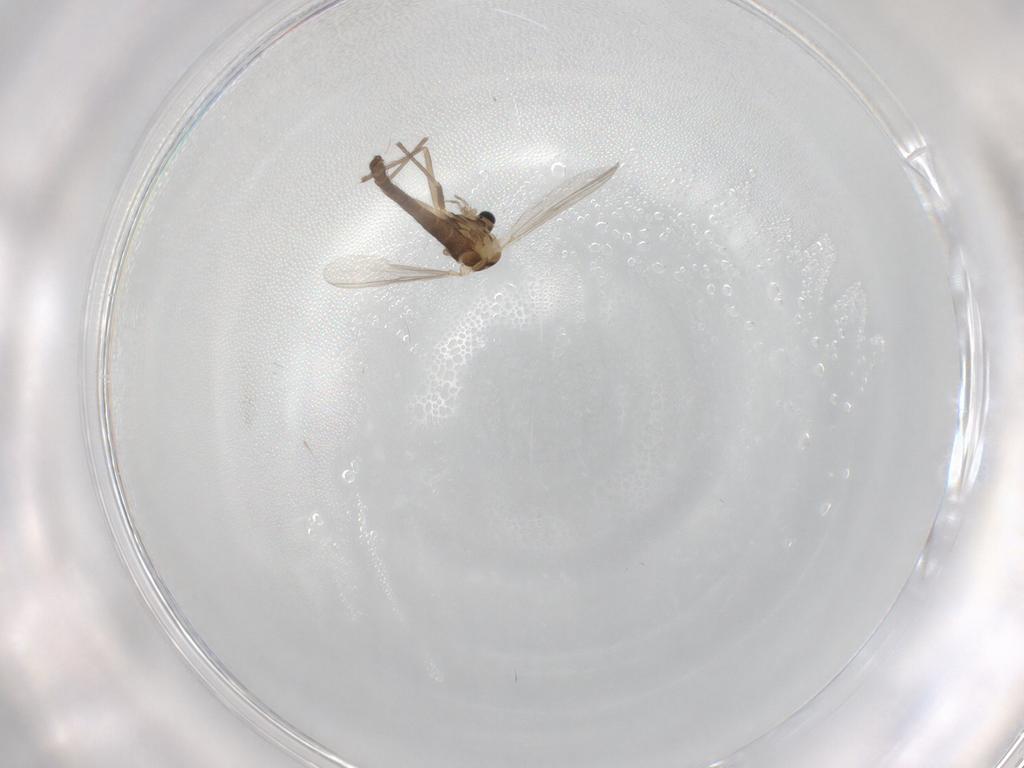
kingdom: Animalia
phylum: Arthropoda
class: Insecta
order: Diptera
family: Chironomidae
